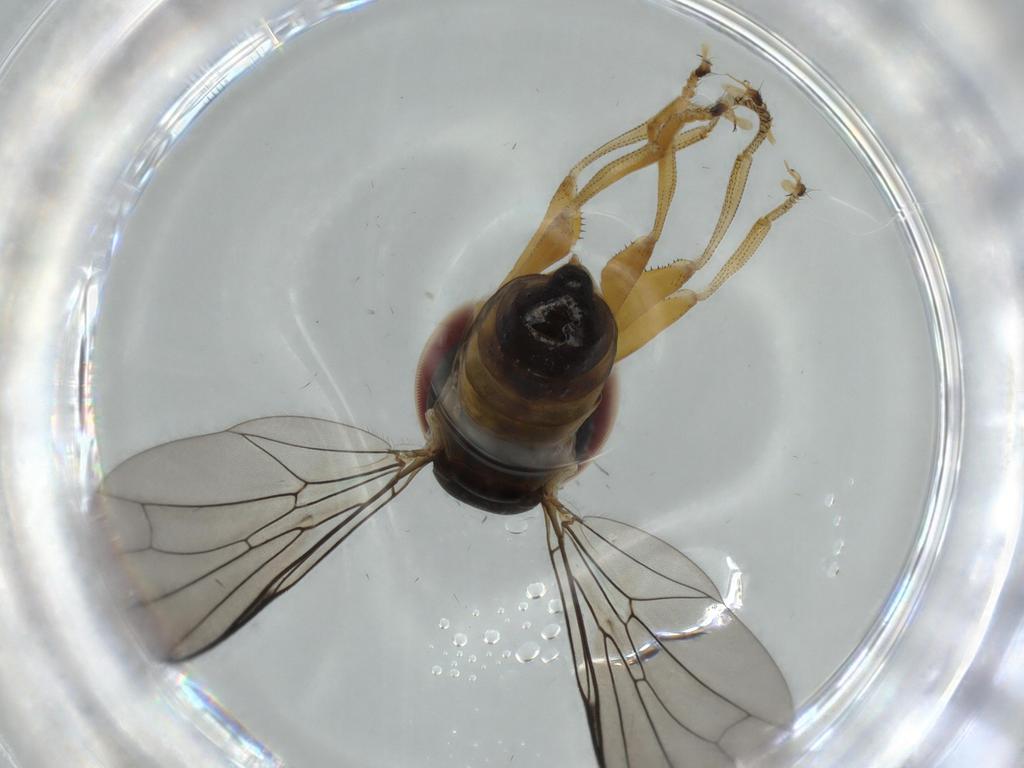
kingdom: Animalia
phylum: Arthropoda
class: Insecta
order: Diptera
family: Pipunculidae
